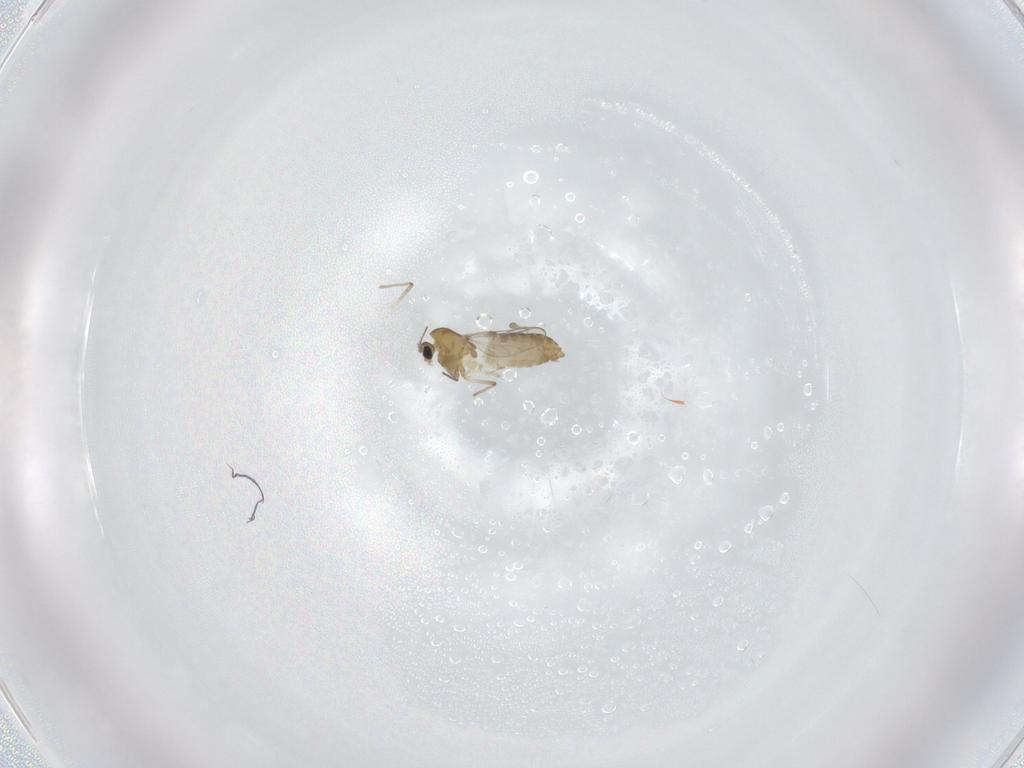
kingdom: Animalia
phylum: Arthropoda
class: Insecta
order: Diptera
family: Chironomidae
